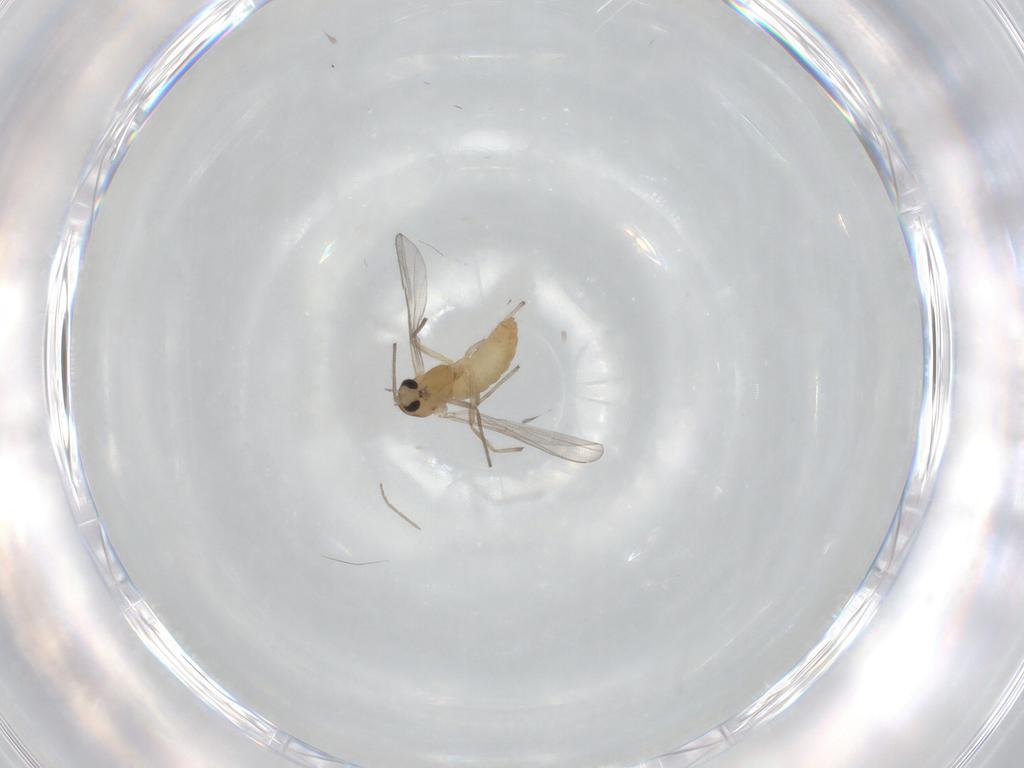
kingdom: Animalia
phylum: Arthropoda
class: Insecta
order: Diptera
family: Chironomidae
